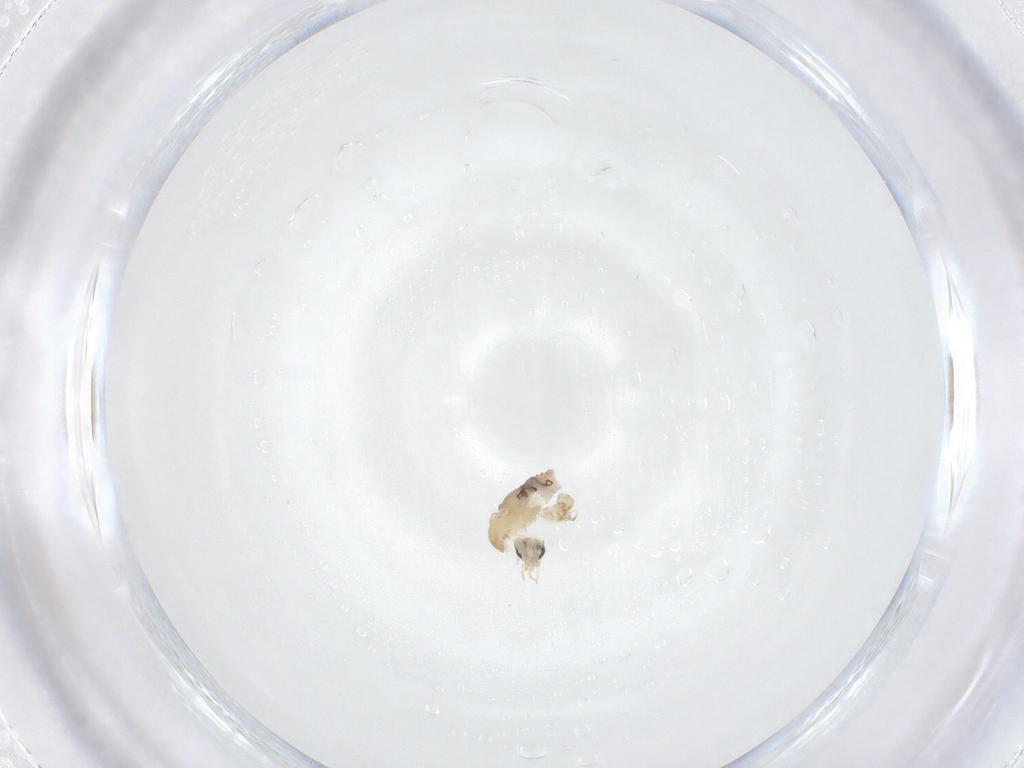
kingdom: Animalia
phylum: Arthropoda
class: Insecta
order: Diptera
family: Psychodidae
